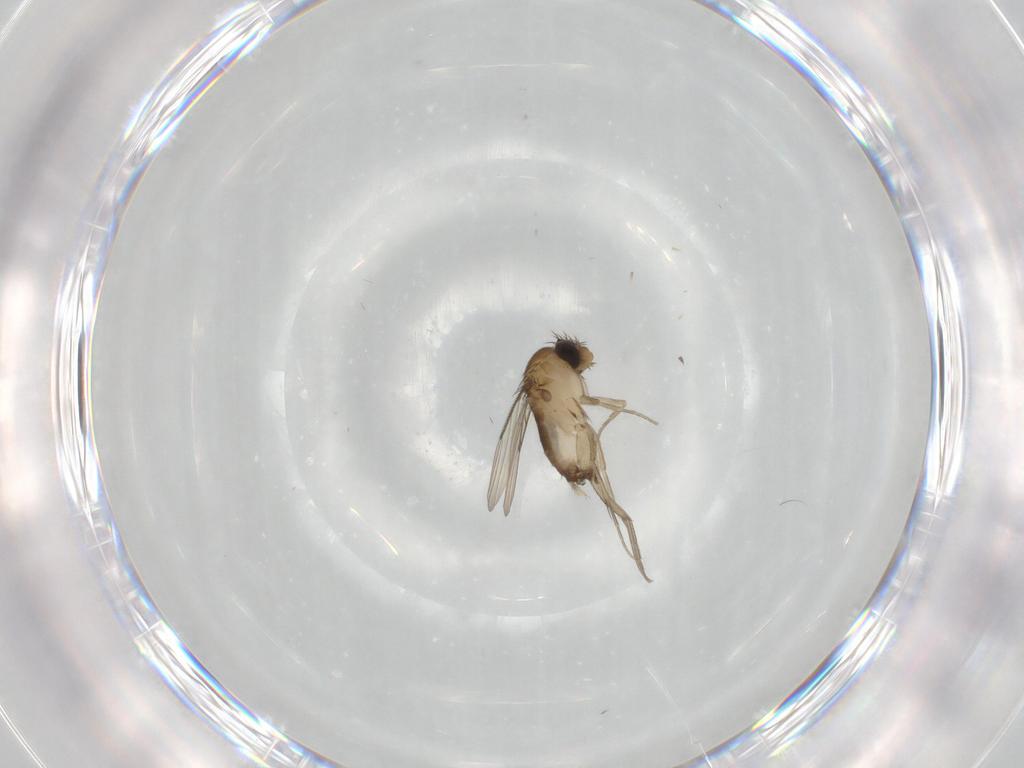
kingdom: Animalia
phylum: Arthropoda
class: Insecta
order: Diptera
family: Phoridae
